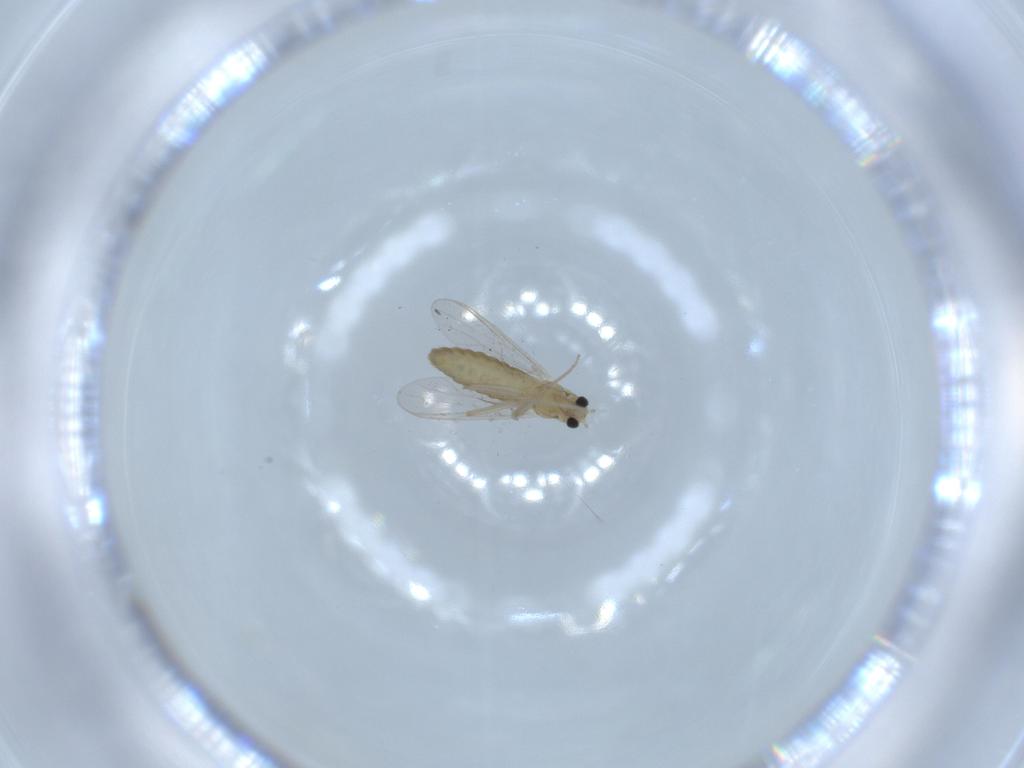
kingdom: Animalia
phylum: Arthropoda
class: Insecta
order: Diptera
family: Chironomidae
